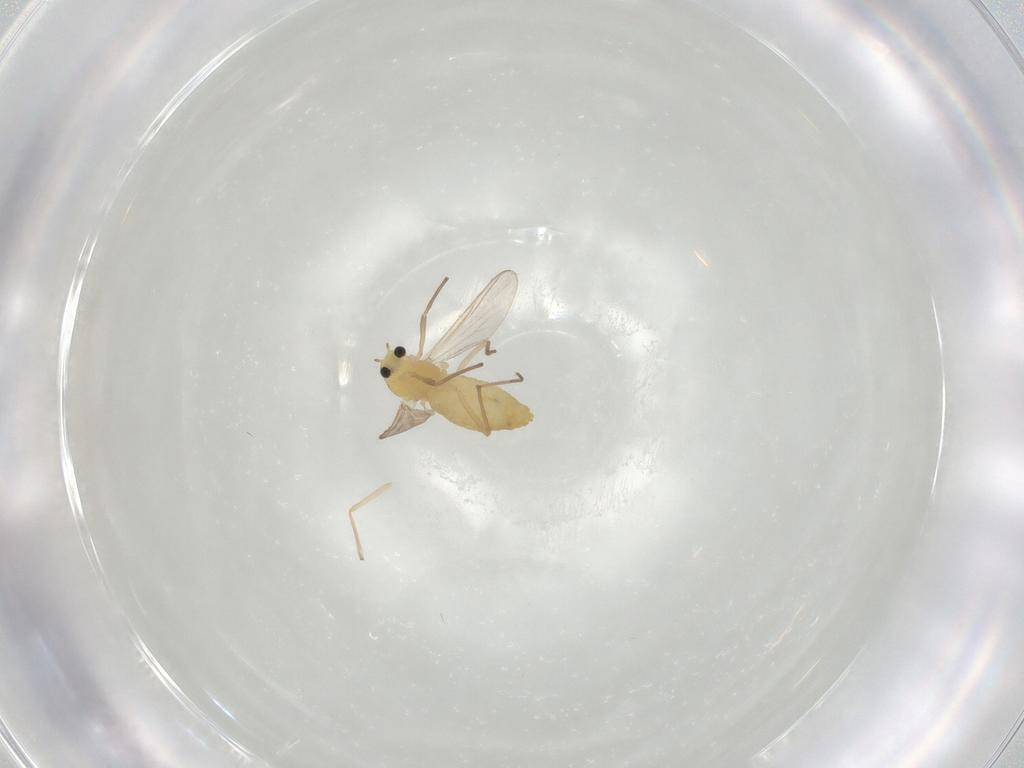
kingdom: Animalia
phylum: Arthropoda
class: Insecta
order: Diptera
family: Chironomidae
